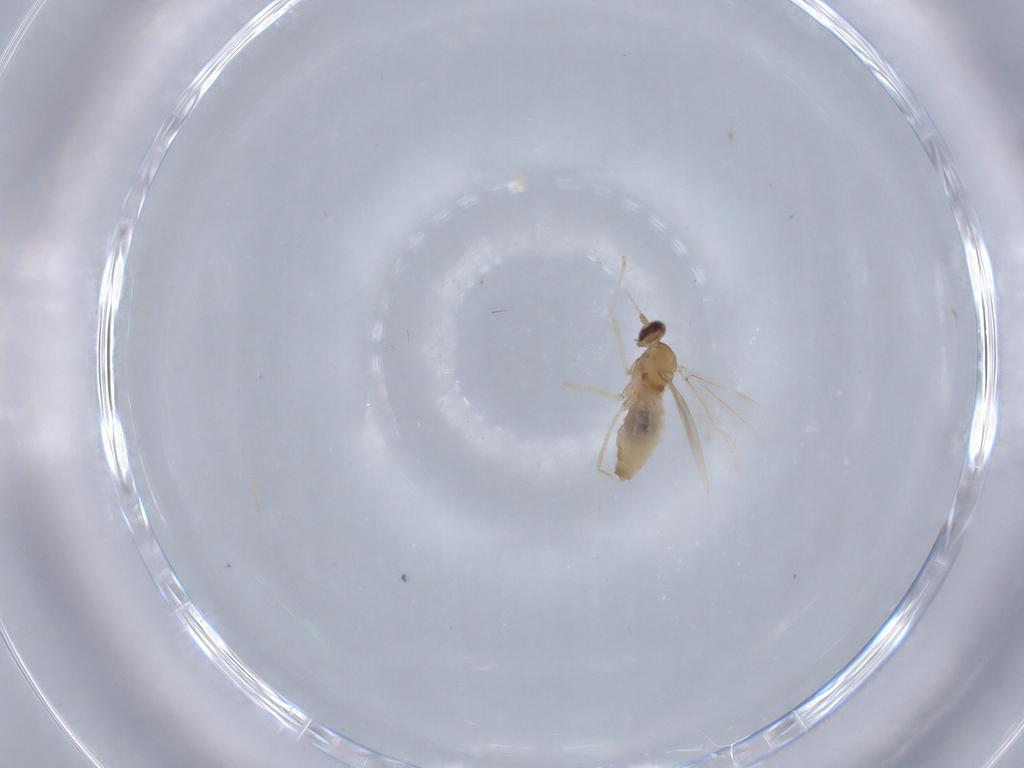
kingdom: Animalia
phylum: Arthropoda
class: Insecta
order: Diptera
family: Cecidomyiidae
